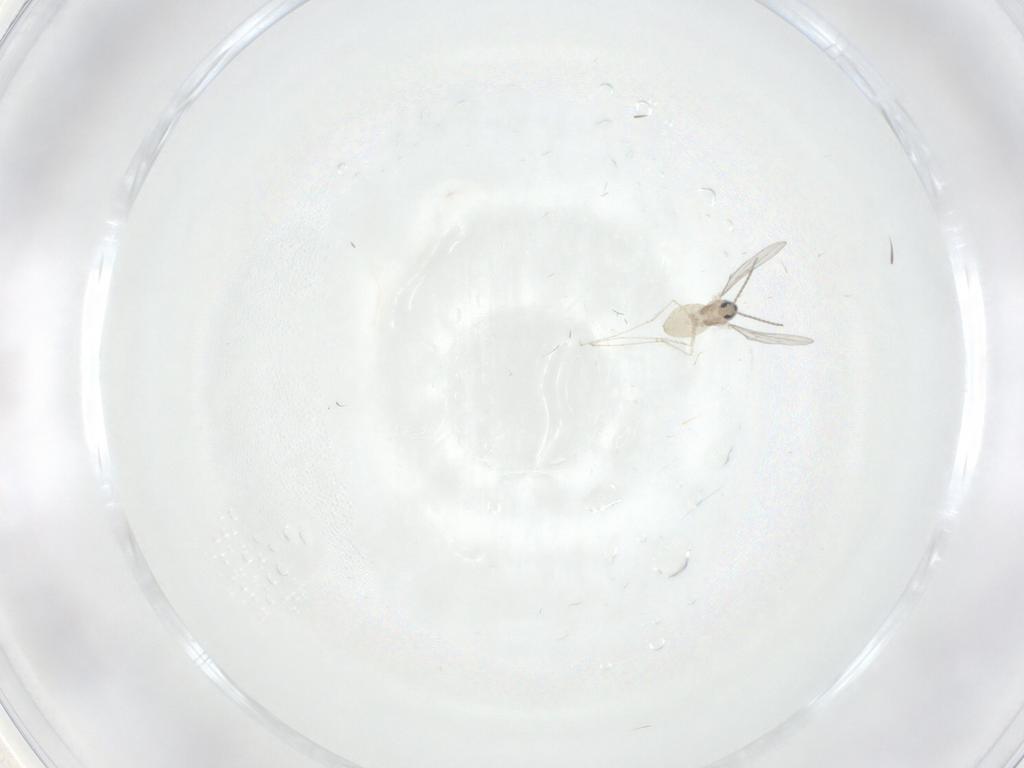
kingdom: Animalia
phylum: Arthropoda
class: Insecta
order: Diptera
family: Cecidomyiidae
